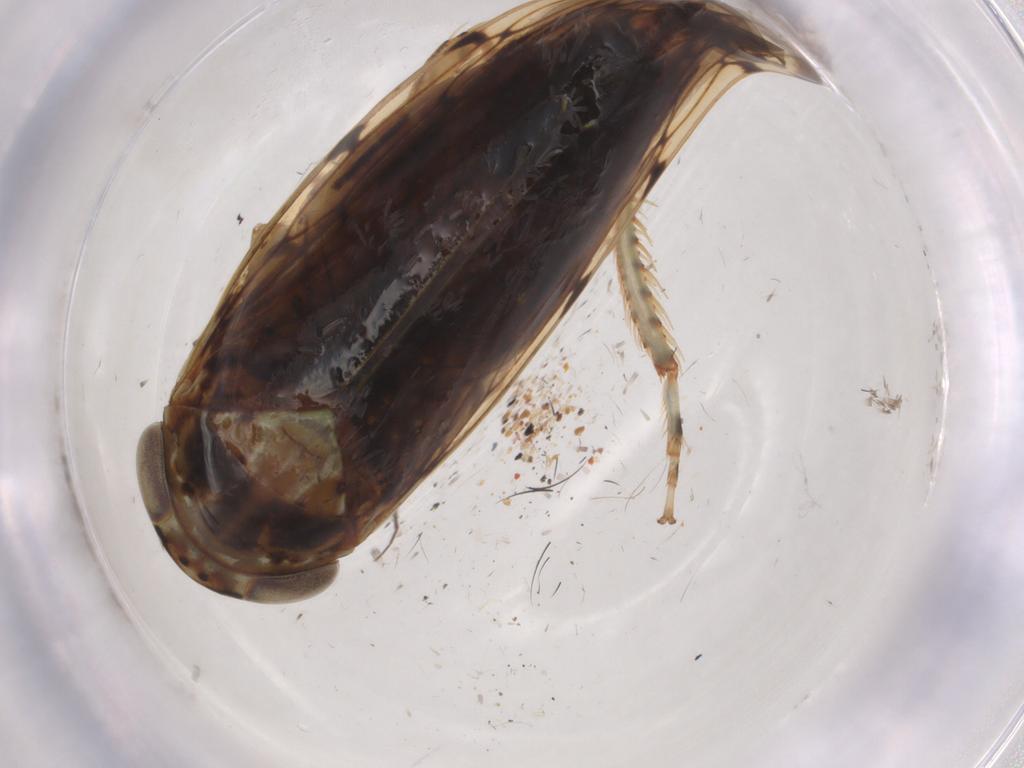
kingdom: Animalia
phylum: Arthropoda
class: Insecta
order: Hemiptera
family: Cicadellidae
